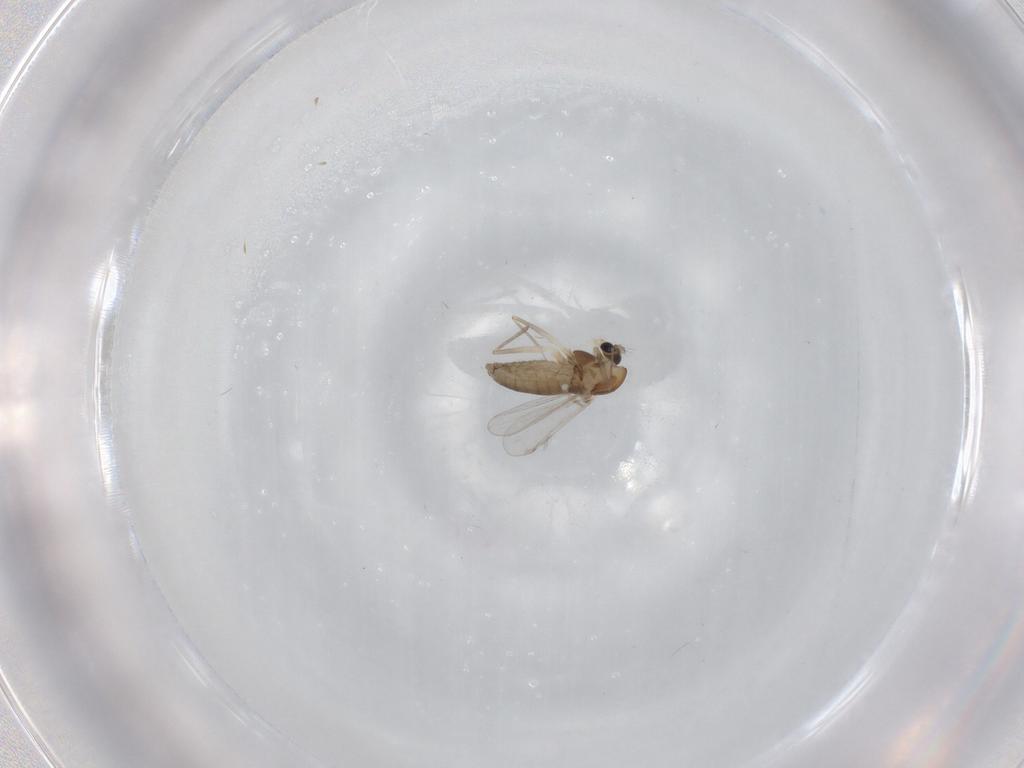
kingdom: Animalia
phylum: Arthropoda
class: Insecta
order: Diptera
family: Chironomidae
